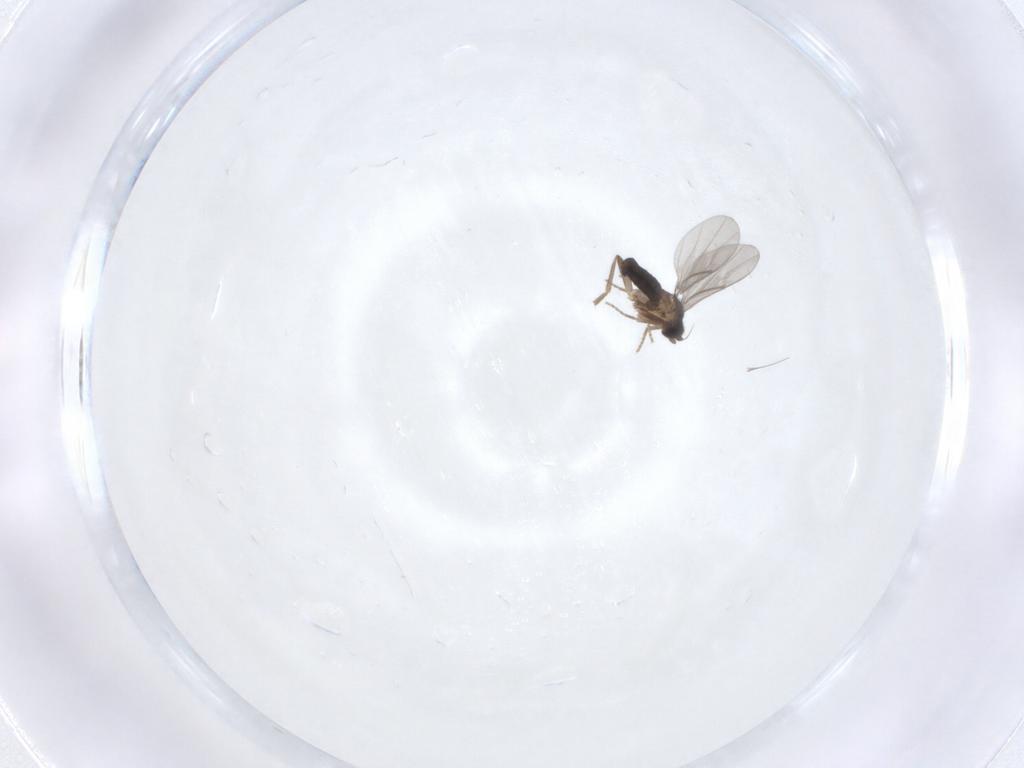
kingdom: Animalia
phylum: Arthropoda
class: Insecta
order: Diptera
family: Phoridae
